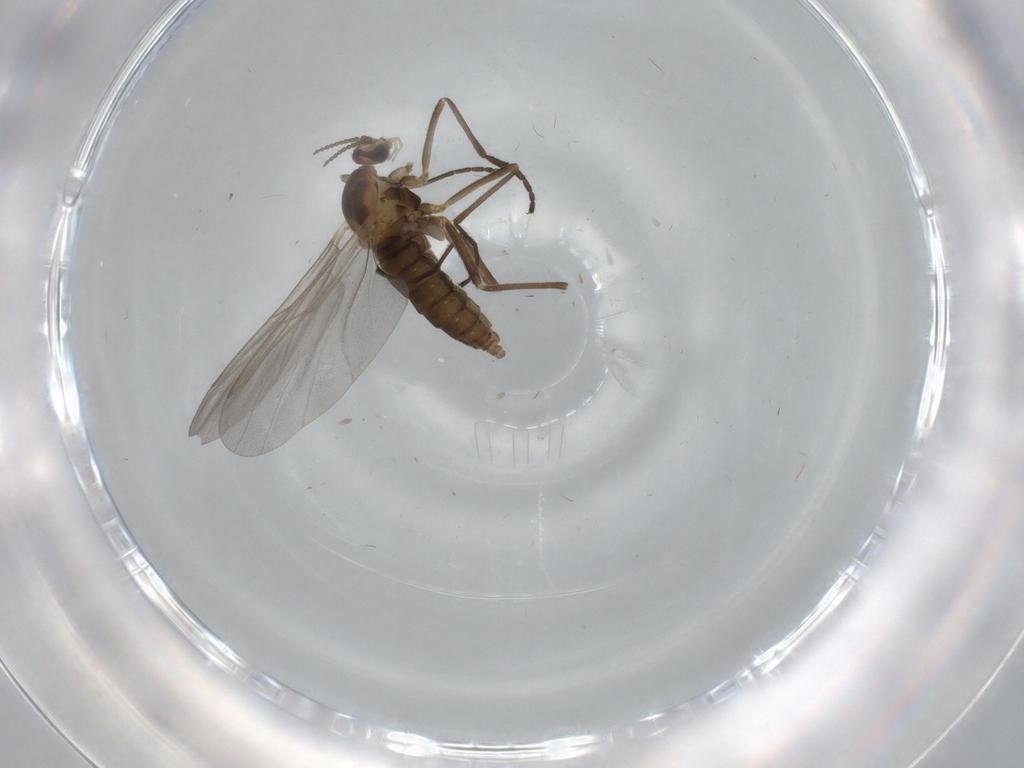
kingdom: Animalia
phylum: Arthropoda
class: Insecta
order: Diptera
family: Cecidomyiidae
